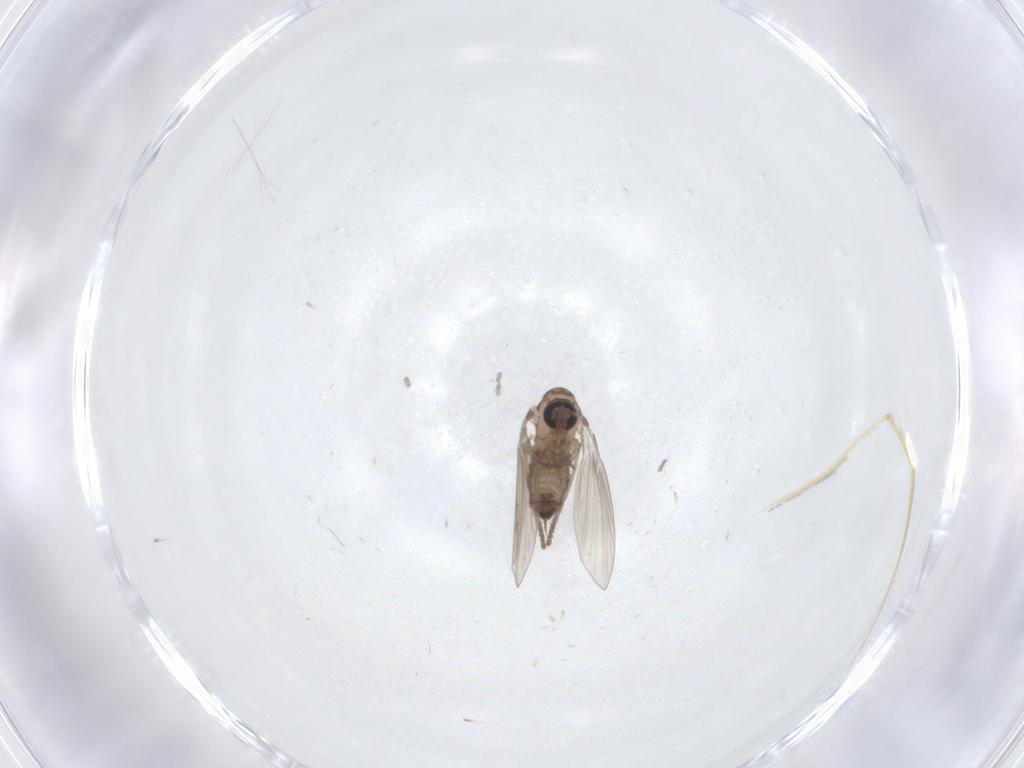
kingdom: Animalia
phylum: Arthropoda
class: Insecta
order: Diptera
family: Psychodidae
